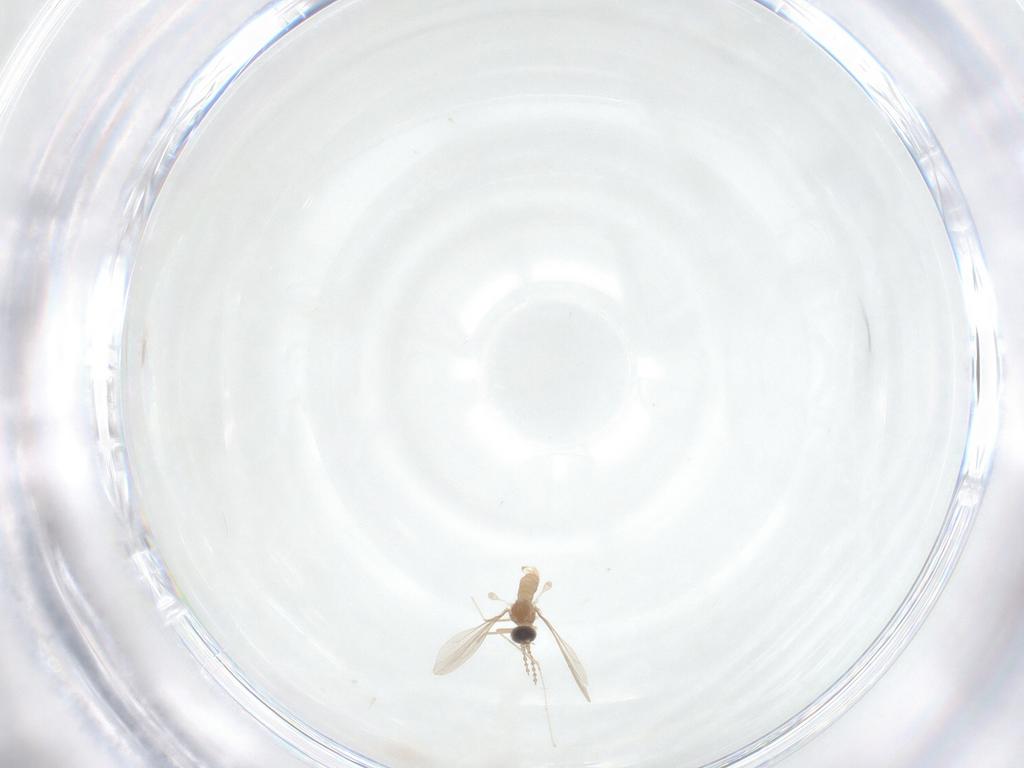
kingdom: Animalia
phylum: Arthropoda
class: Insecta
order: Diptera
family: Cecidomyiidae
